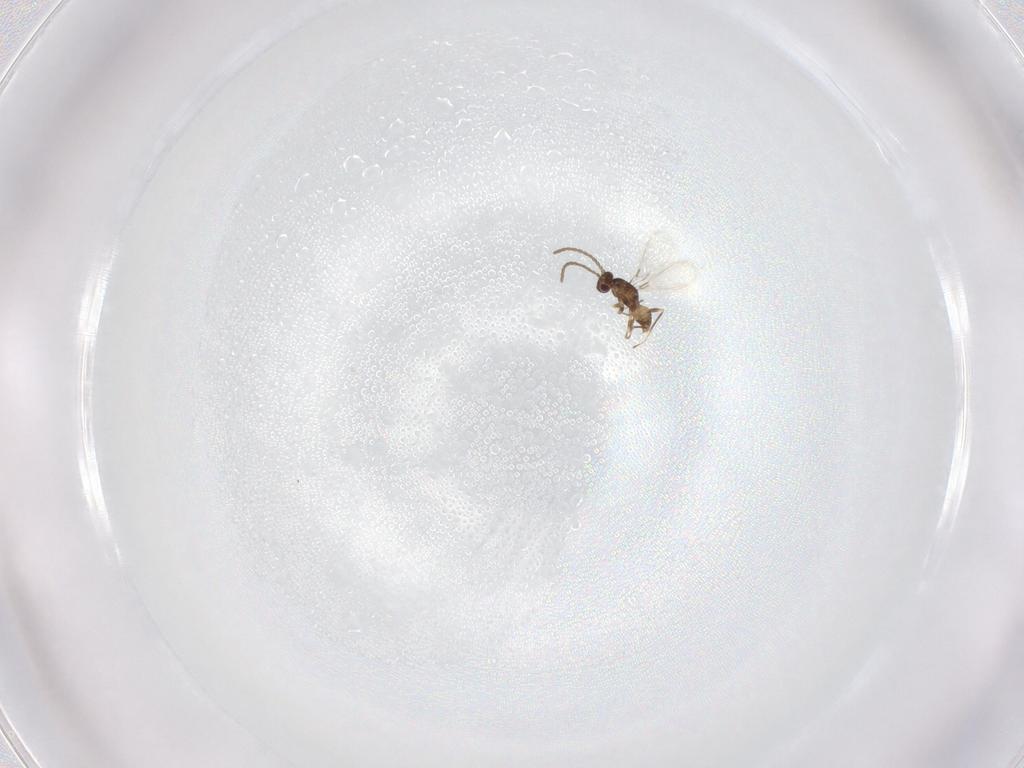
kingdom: Animalia
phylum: Arthropoda
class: Insecta
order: Hymenoptera
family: Mymaridae
